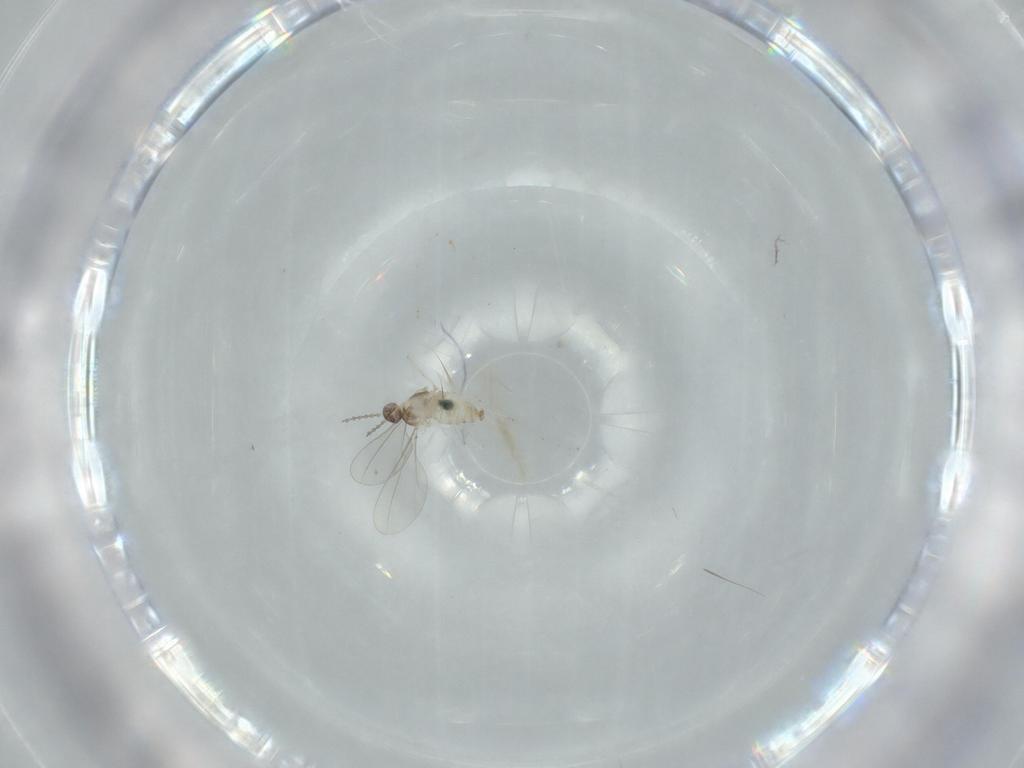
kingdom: Animalia
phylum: Arthropoda
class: Insecta
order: Diptera
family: Cecidomyiidae
